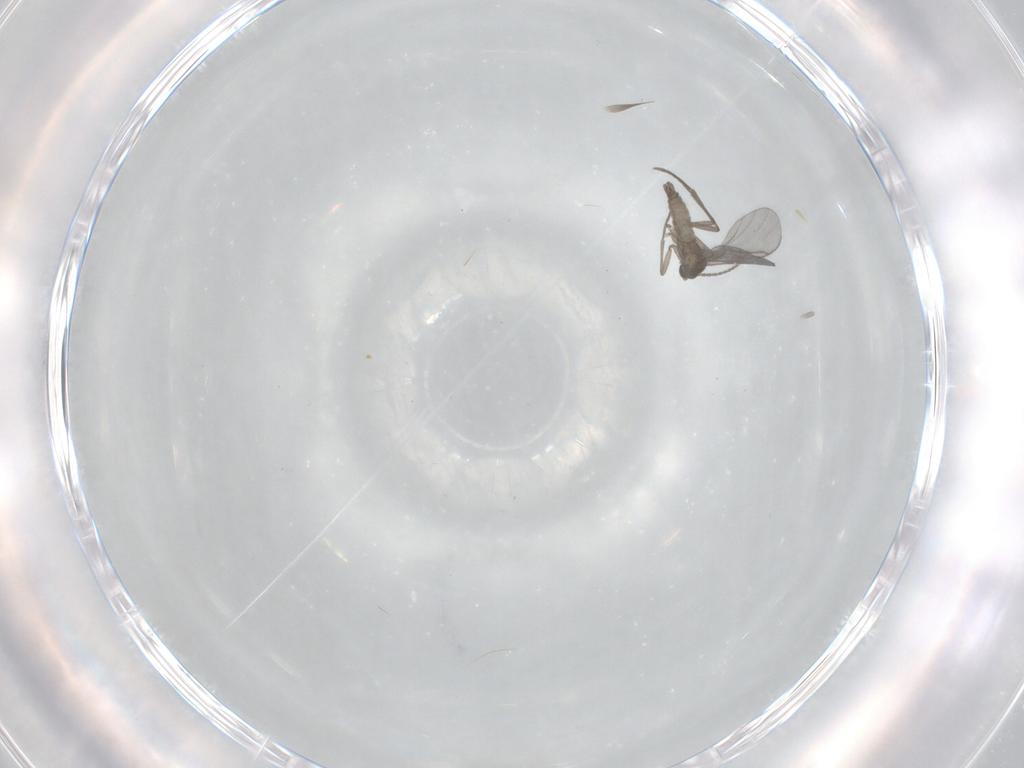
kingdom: Animalia
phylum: Arthropoda
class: Insecta
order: Diptera
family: Sciaridae
